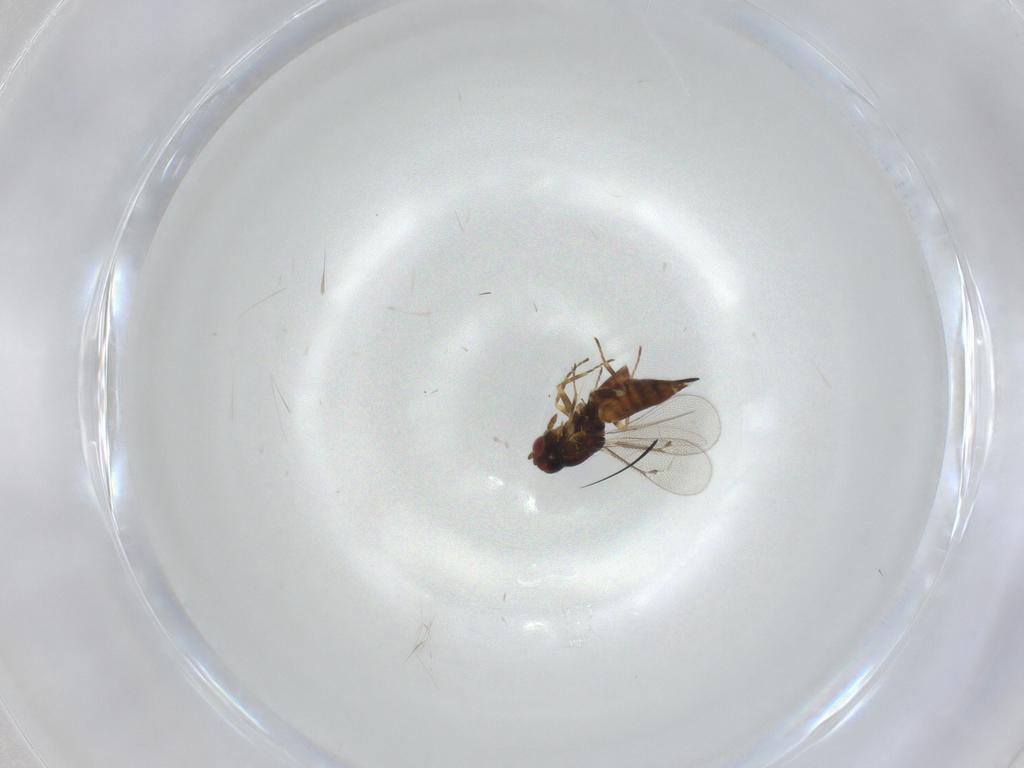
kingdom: Animalia
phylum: Arthropoda
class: Insecta
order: Hymenoptera
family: Eulophidae
